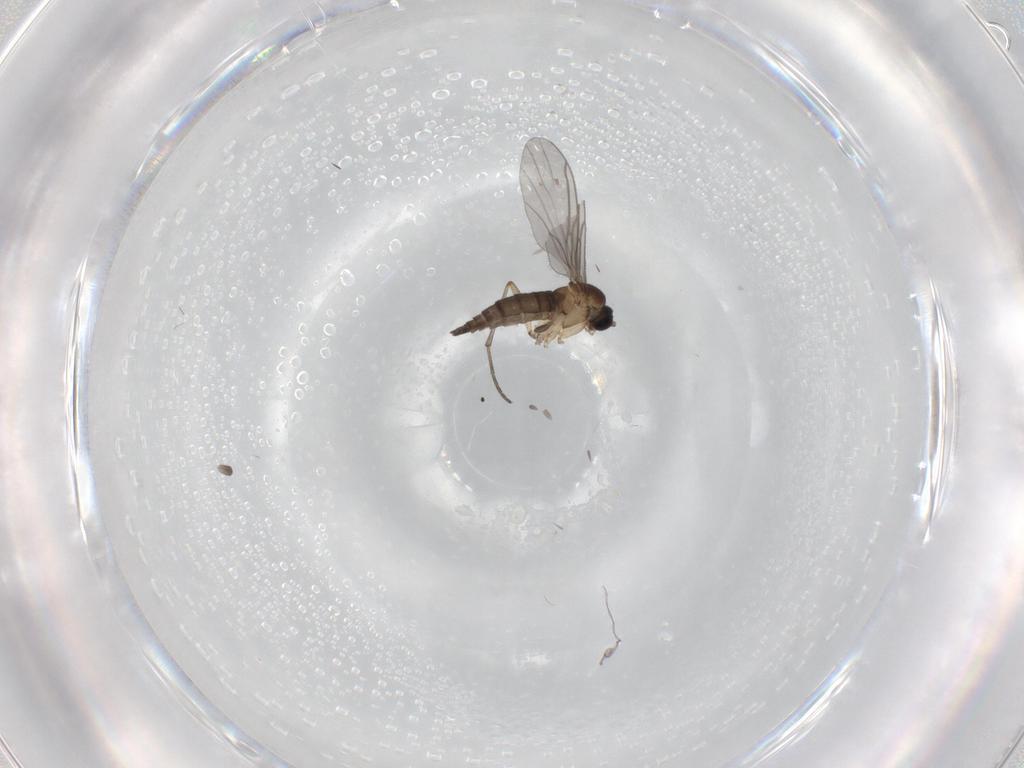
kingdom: Animalia
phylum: Arthropoda
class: Insecta
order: Diptera
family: Sciaridae
